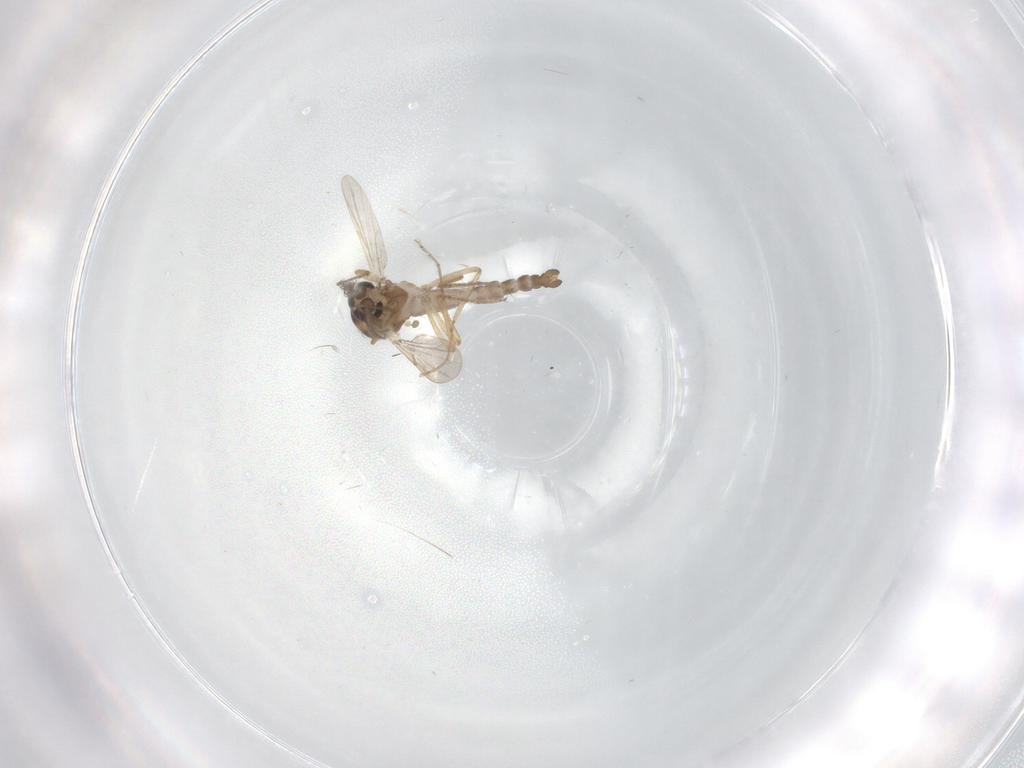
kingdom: Animalia
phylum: Arthropoda
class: Insecta
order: Diptera
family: Ceratopogonidae
